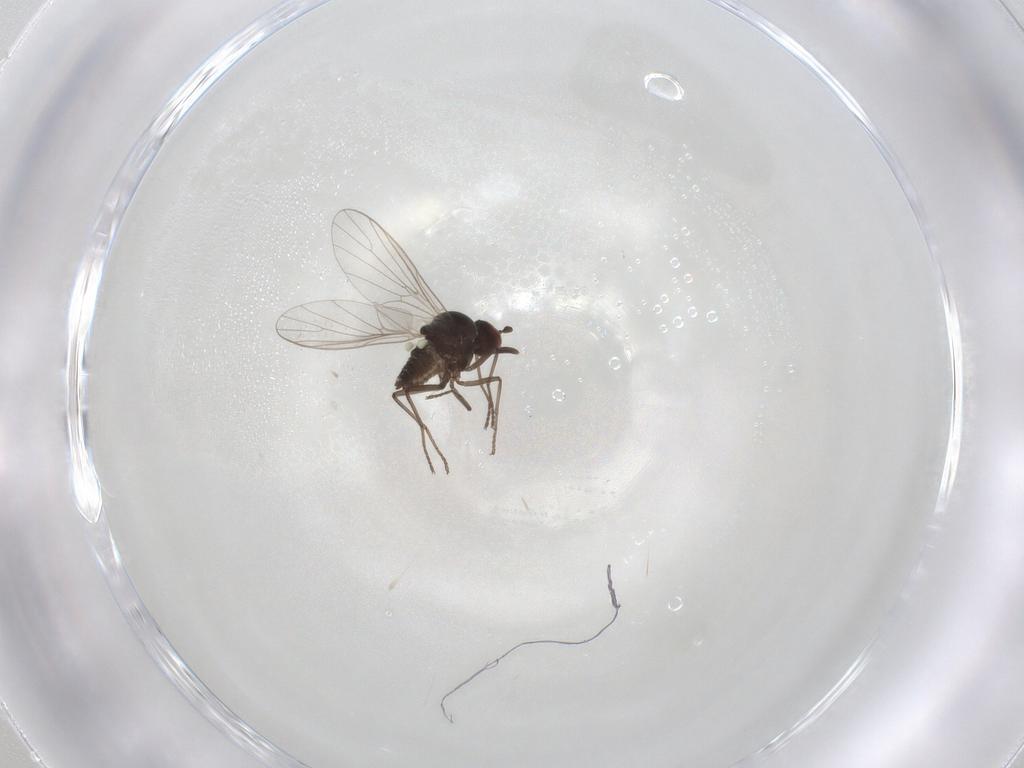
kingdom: Animalia
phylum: Arthropoda
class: Insecta
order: Diptera
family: Bombyliidae
